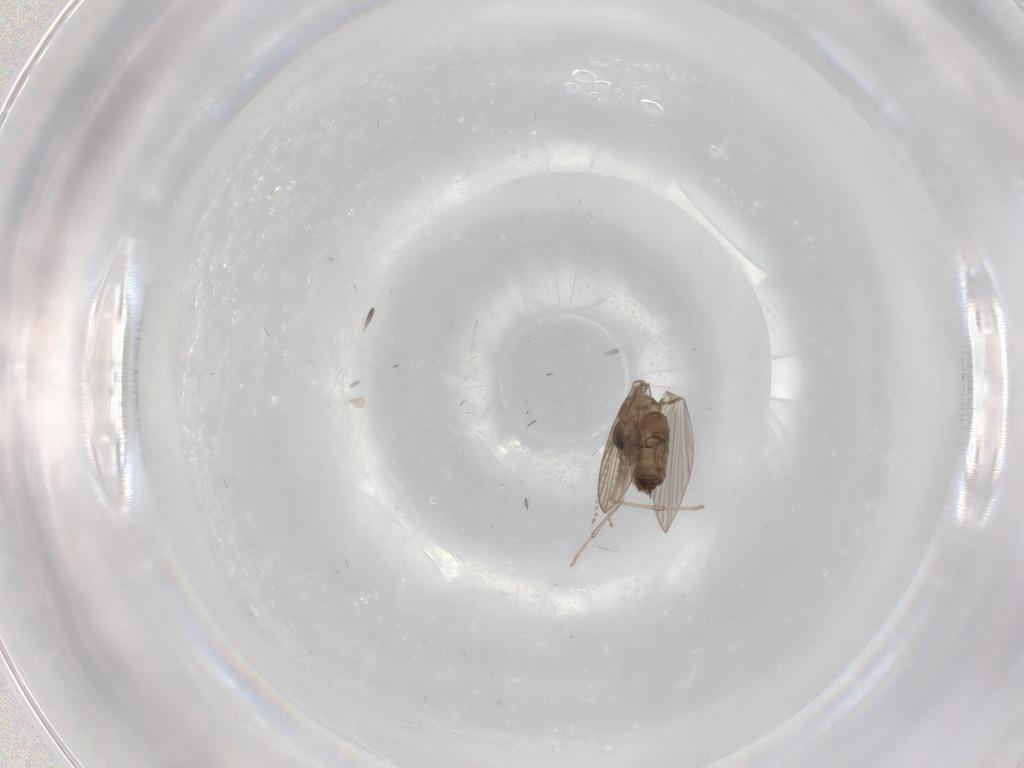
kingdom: Animalia
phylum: Arthropoda
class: Insecta
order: Diptera
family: Psychodidae
